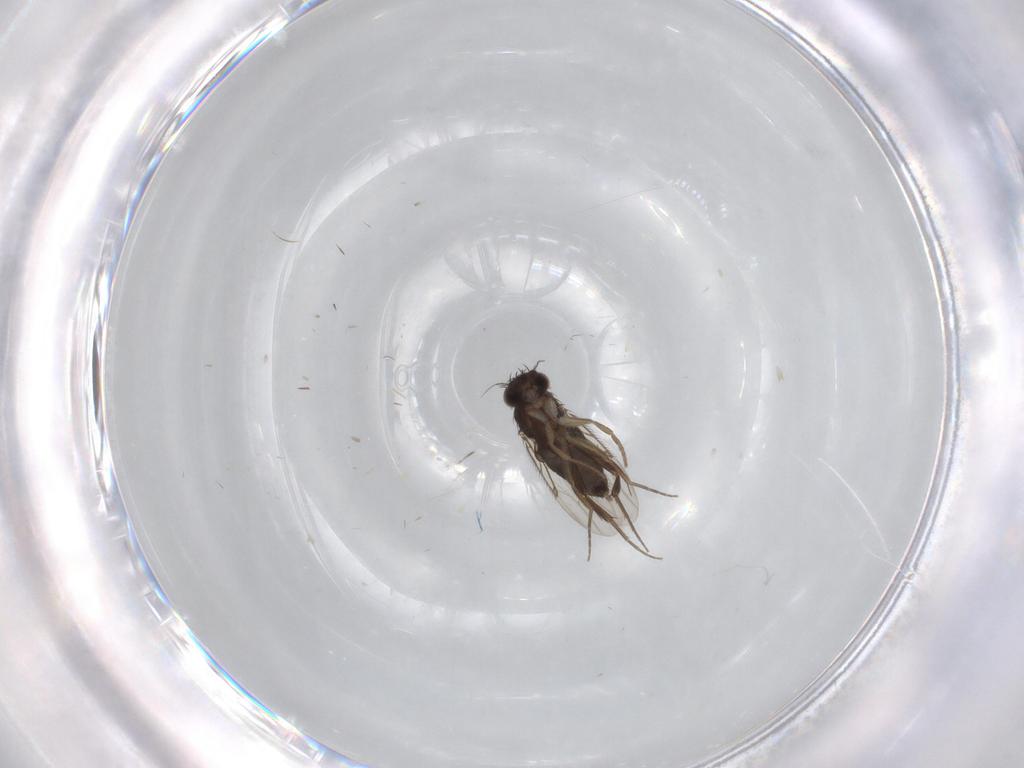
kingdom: Animalia
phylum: Arthropoda
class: Insecta
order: Diptera
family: Phoridae
